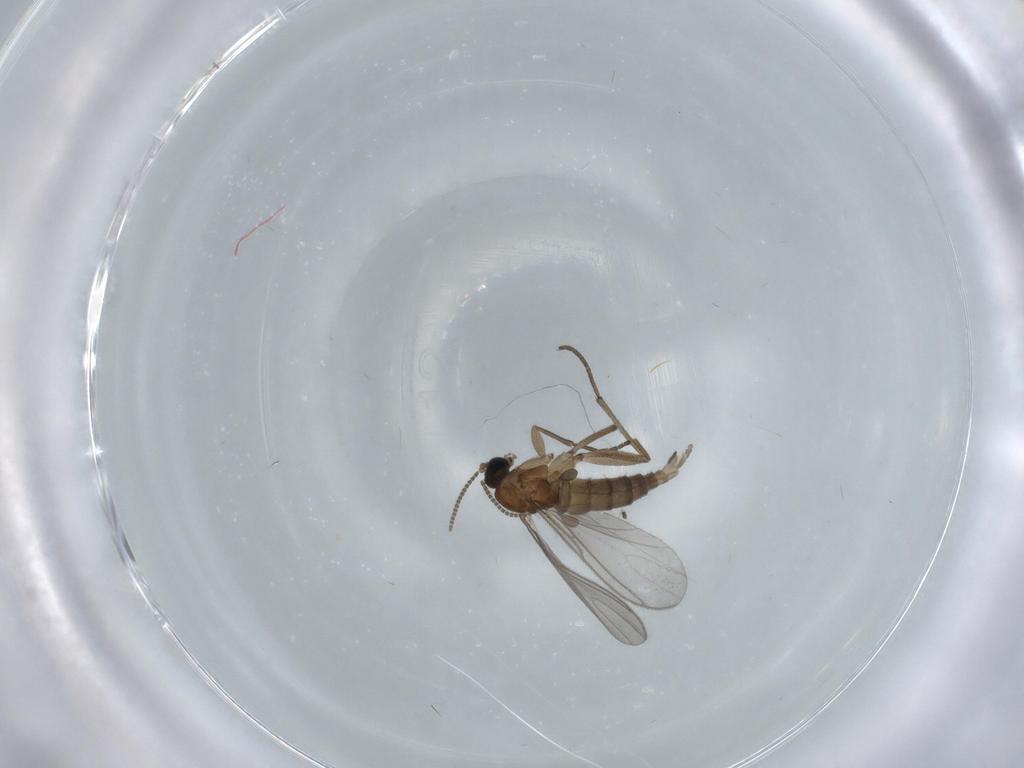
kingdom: Animalia
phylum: Arthropoda
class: Insecta
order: Diptera
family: Sciaridae
